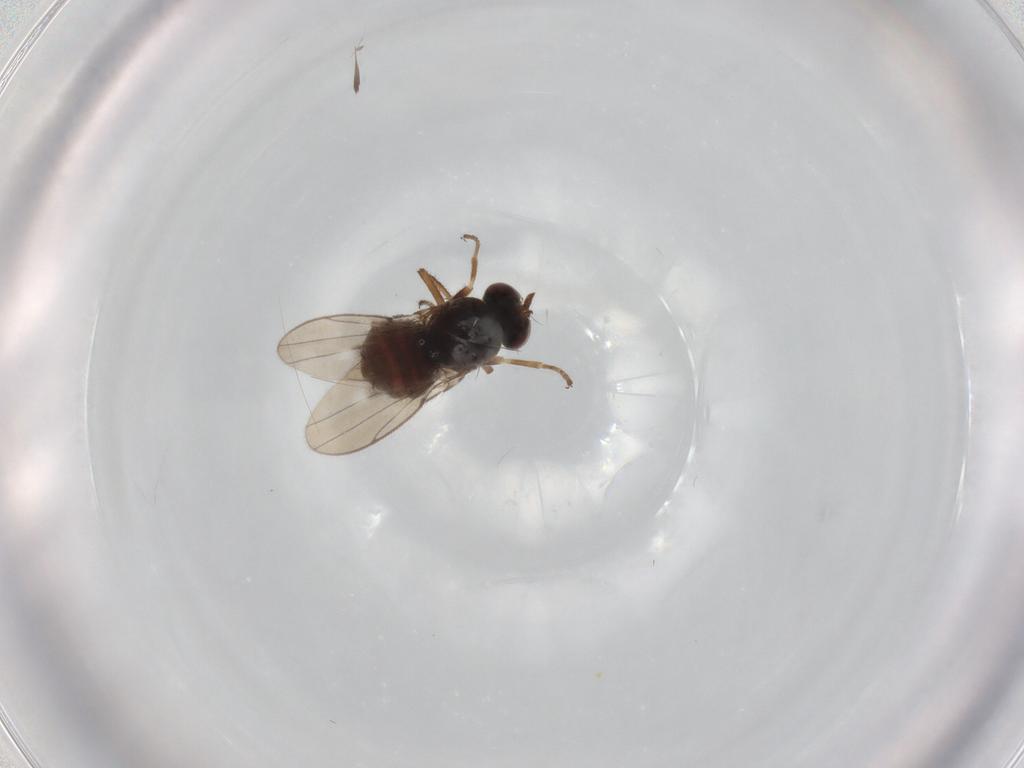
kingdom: Animalia
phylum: Arthropoda
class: Insecta
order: Diptera
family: Ephydridae
